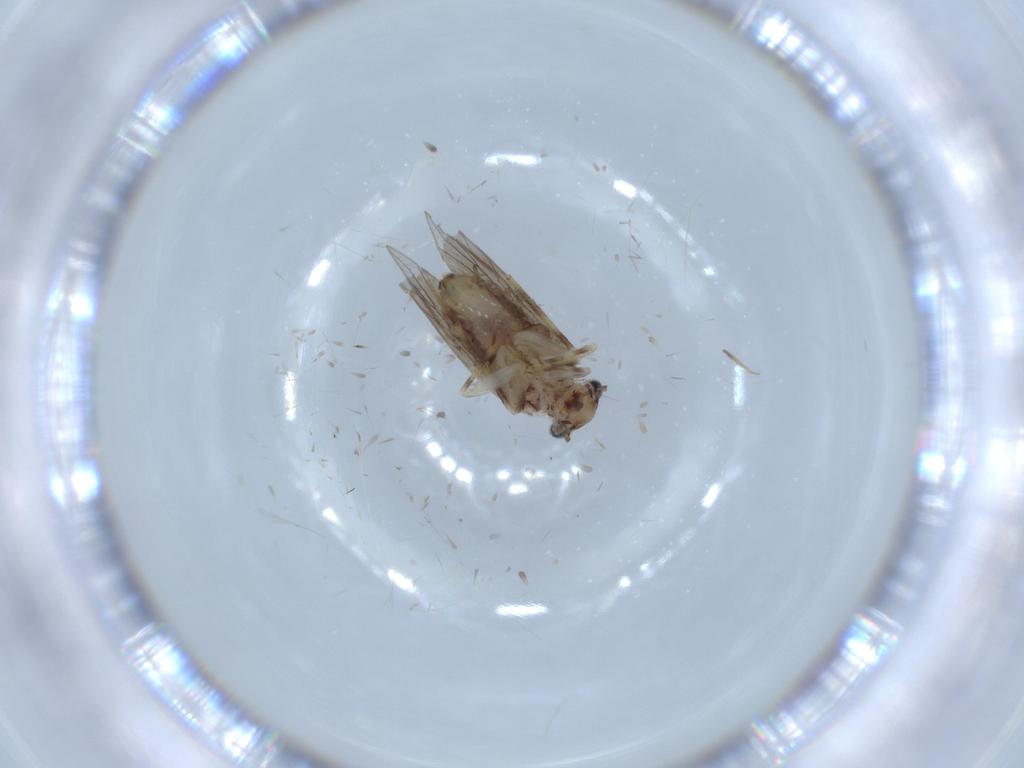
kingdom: Animalia
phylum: Arthropoda
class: Insecta
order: Psocodea
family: Lepidopsocidae
